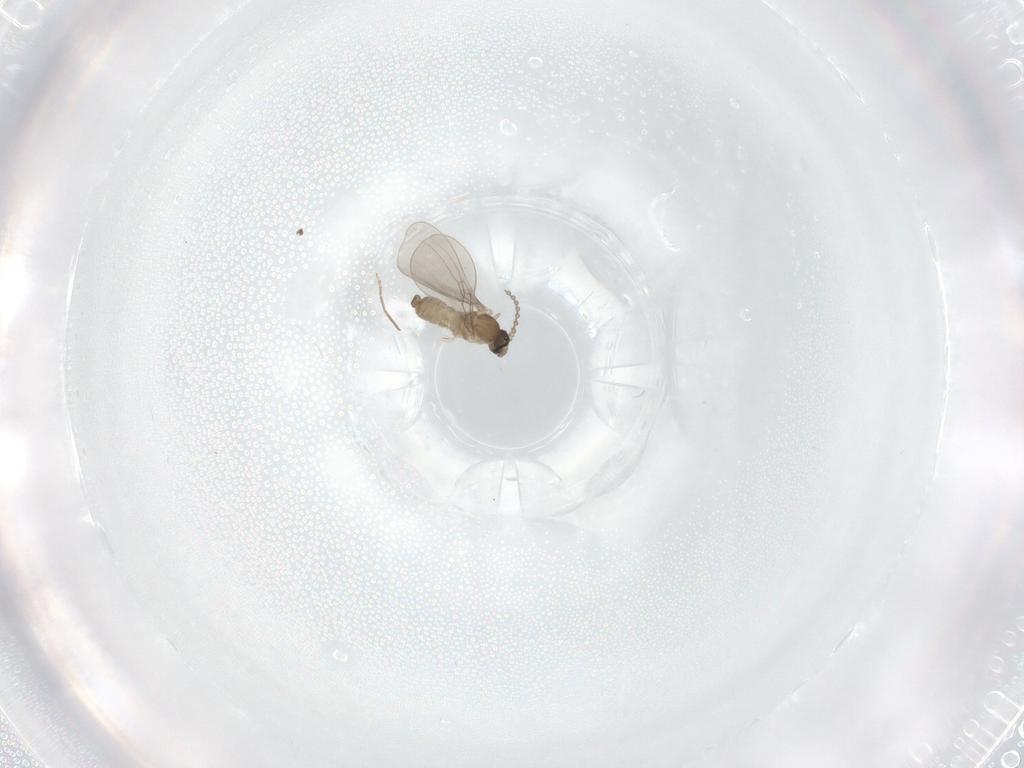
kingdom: Animalia
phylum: Arthropoda
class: Insecta
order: Diptera
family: Cecidomyiidae
